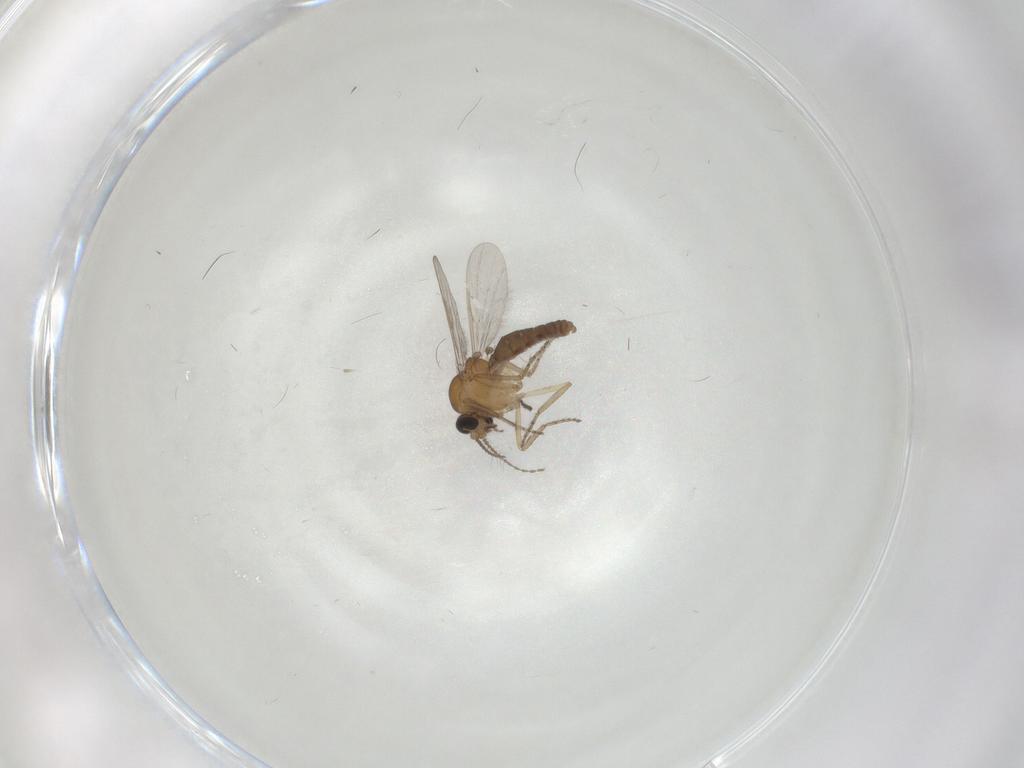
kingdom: Animalia
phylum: Arthropoda
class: Insecta
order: Diptera
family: Ceratopogonidae
